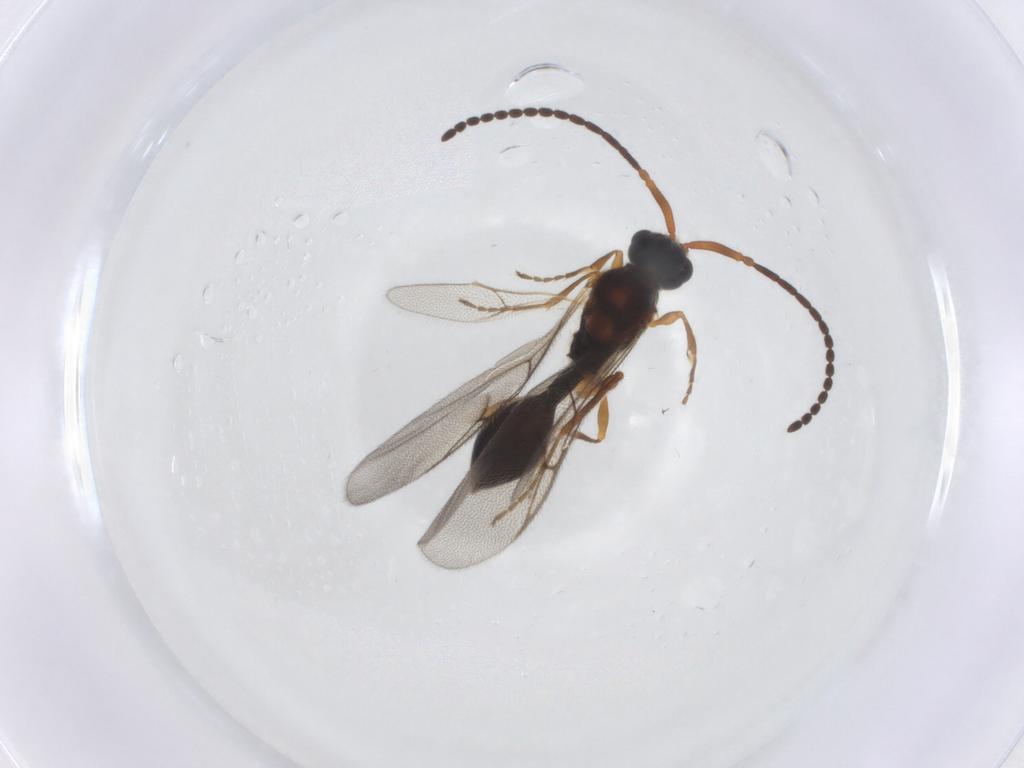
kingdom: Animalia
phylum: Arthropoda
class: Insecta
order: Hymenoptera
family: Diapriidae
